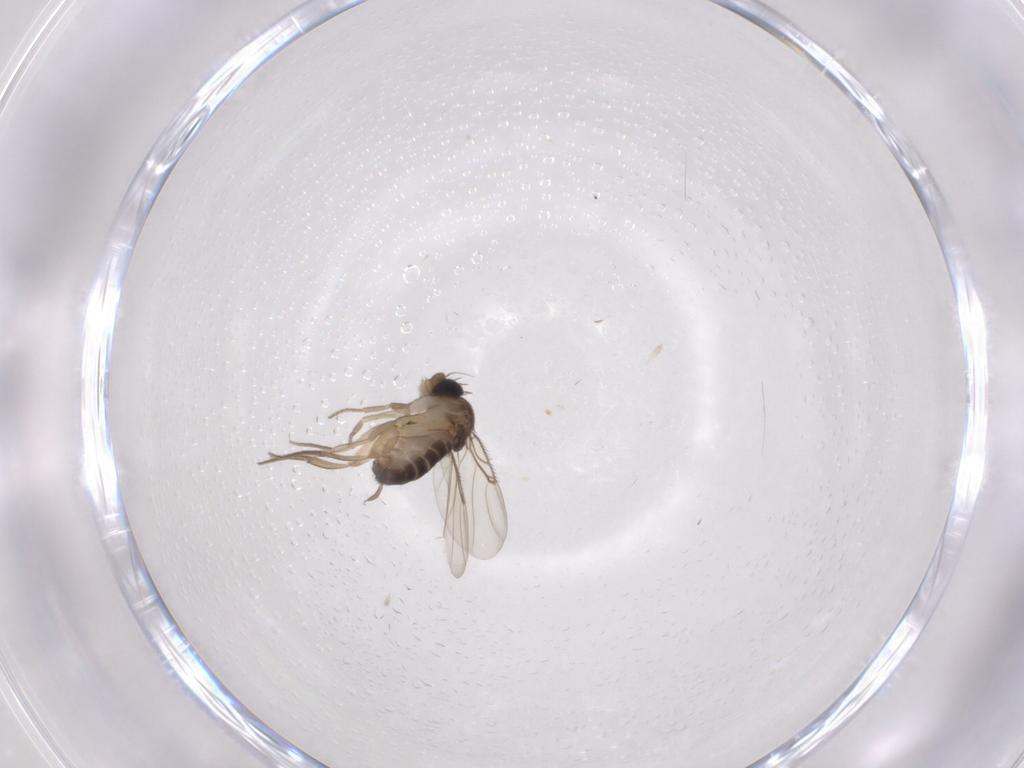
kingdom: Animalia
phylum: Arthropoda
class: Insecta
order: Diptera
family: Phoridae
